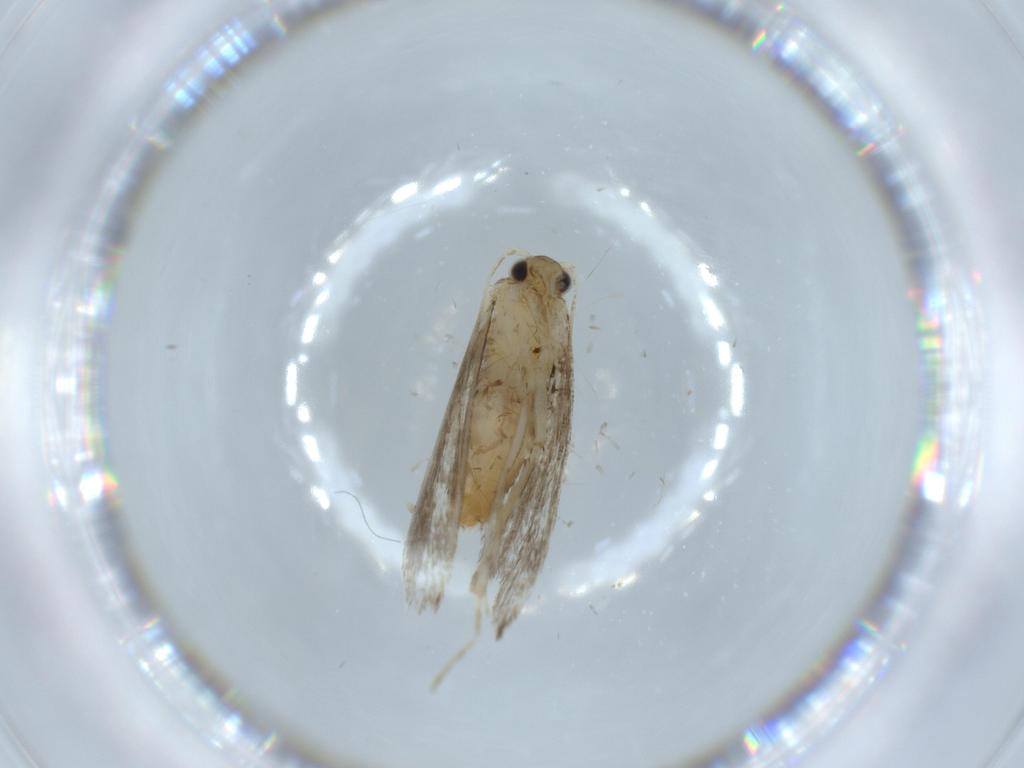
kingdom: Animalia
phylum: Arthropoda
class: Insecta
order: Lepidoptera
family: Tineidae
